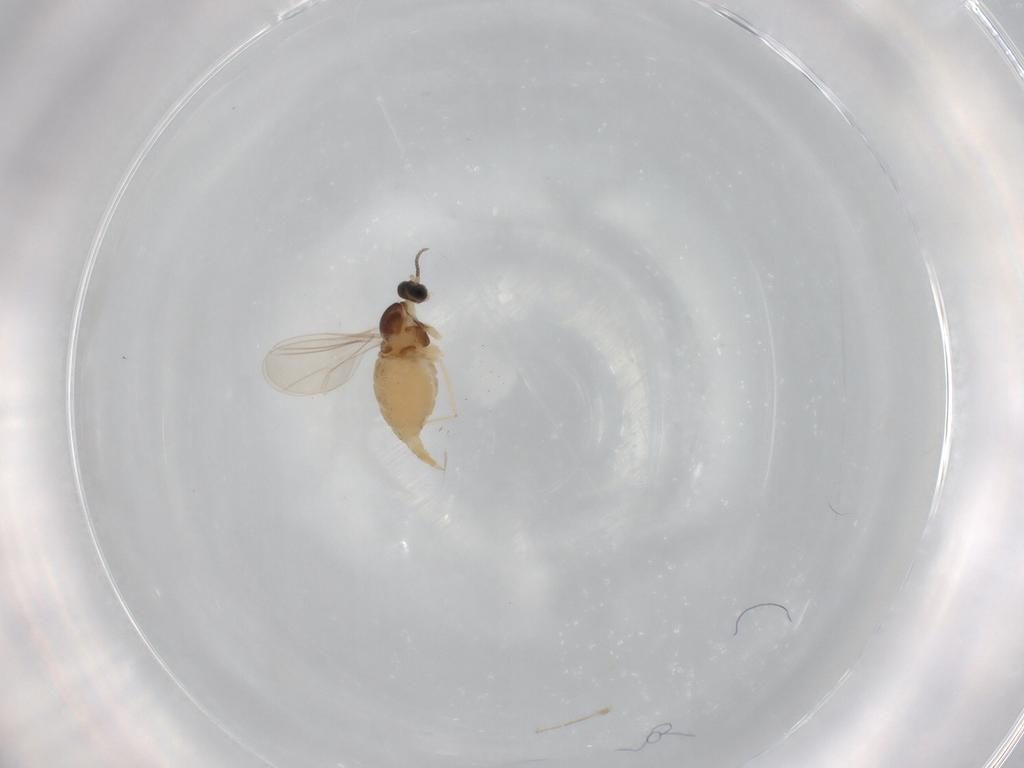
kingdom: Animalia
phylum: Arthropoda
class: Insecta
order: Diptera
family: Cecidomyiidae
